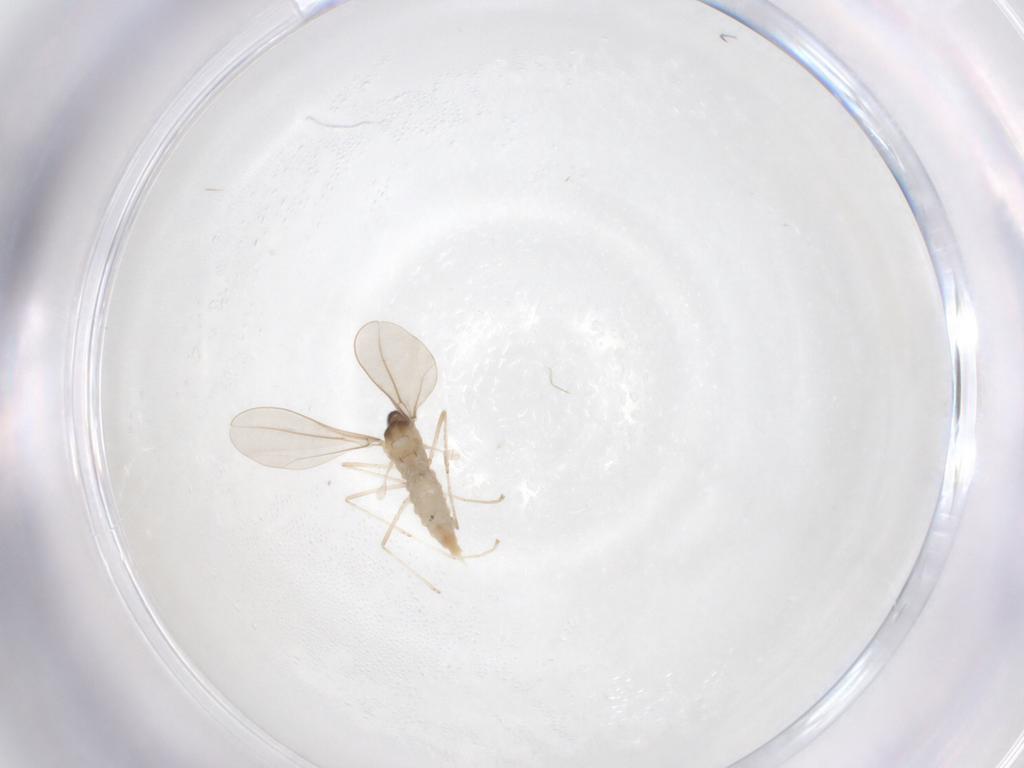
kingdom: Animalia
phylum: Arthropoda
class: Insecta
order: Diptera
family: Cecidomyiidae
